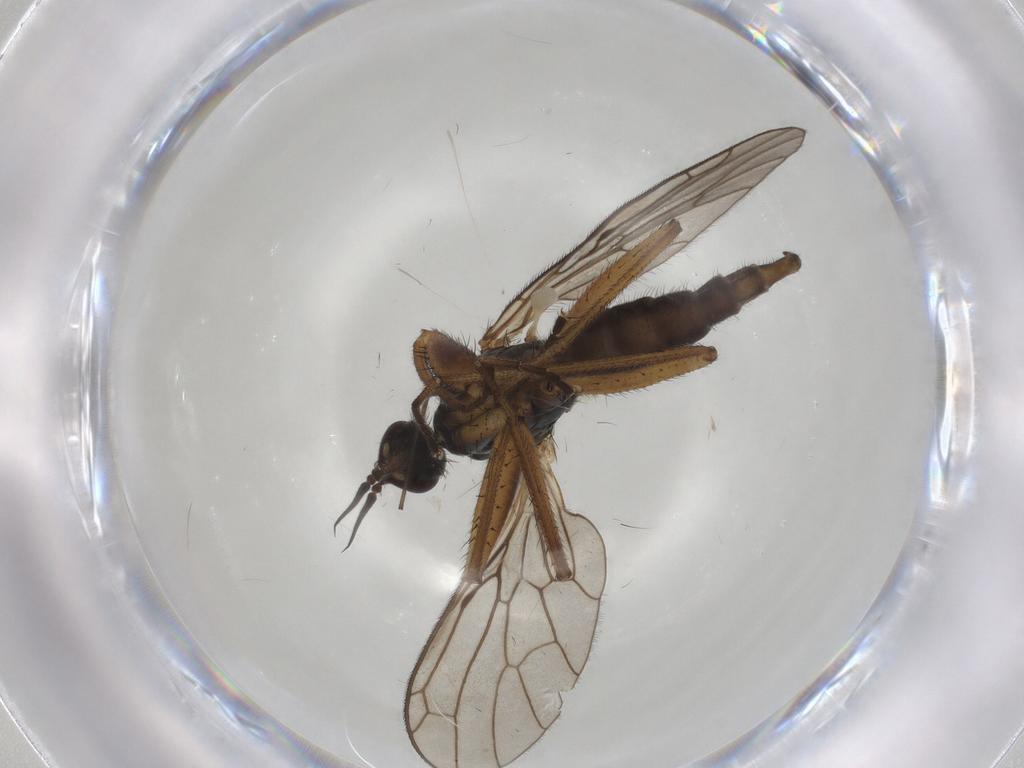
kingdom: Animalia
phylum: Arthropoda
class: Insecta
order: Diptera
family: Empididae
